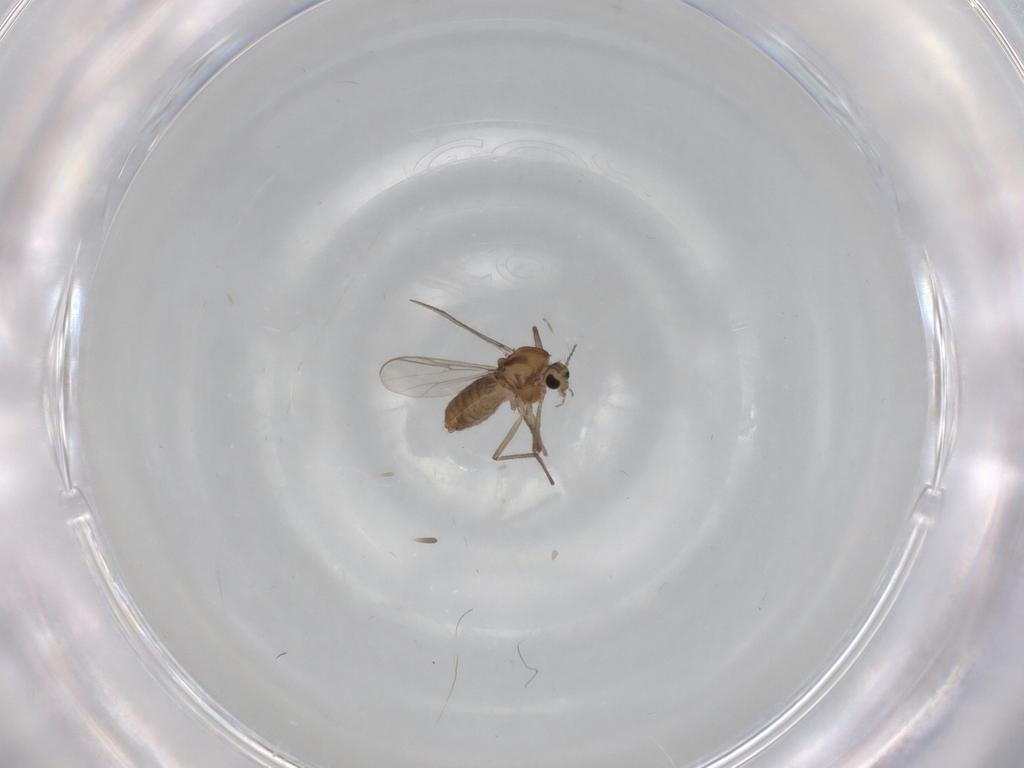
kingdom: Animalia
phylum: Arthropoda
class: Insecta
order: Diptera
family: Chironomidae
